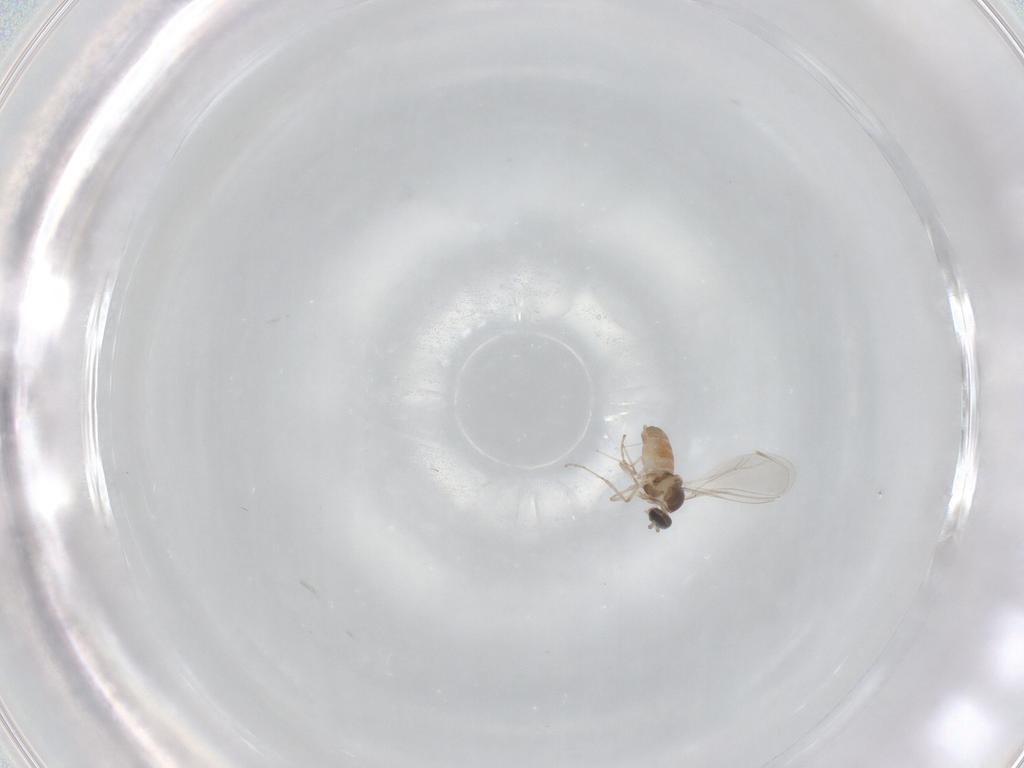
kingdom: Animalia
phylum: Arthropoda
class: Insecta
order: Diptera
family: Cecidomyiidae
